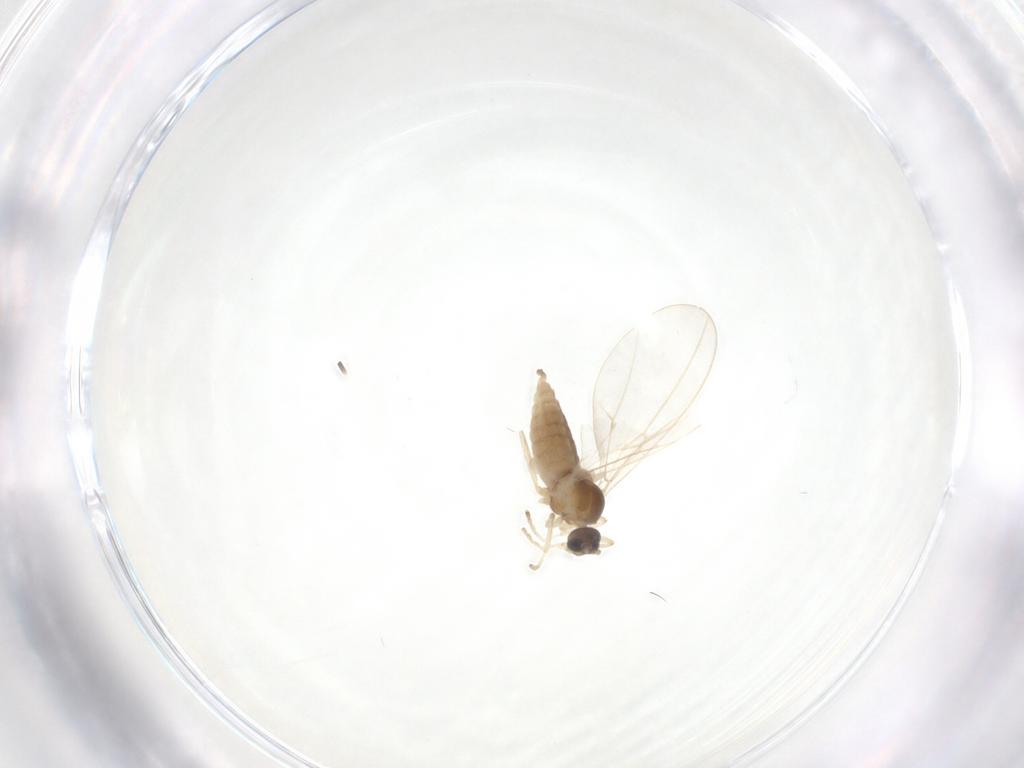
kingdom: Animalia
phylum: Arthropoda
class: Insecta
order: Diptera
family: Cecidomyiidae
